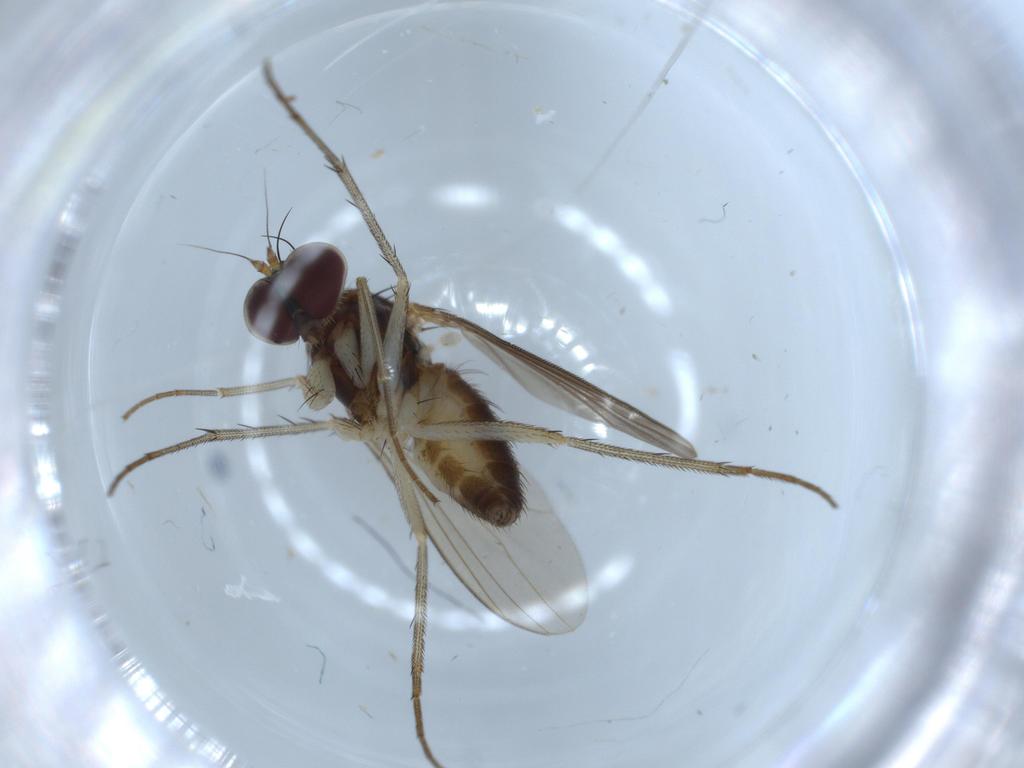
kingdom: Animalia
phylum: Arthropoda
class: Insecta
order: Diptera
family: Dolichopodidae
